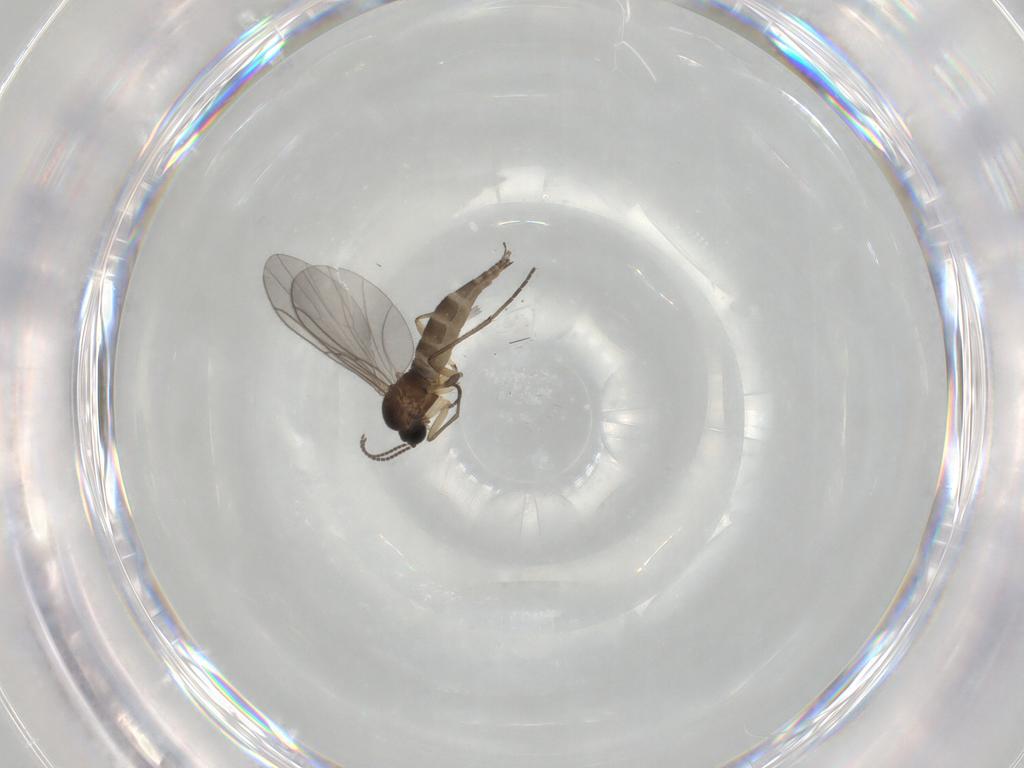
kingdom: Animalia
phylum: Arthropoda
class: Insecta
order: Diptera
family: Sciaridae
